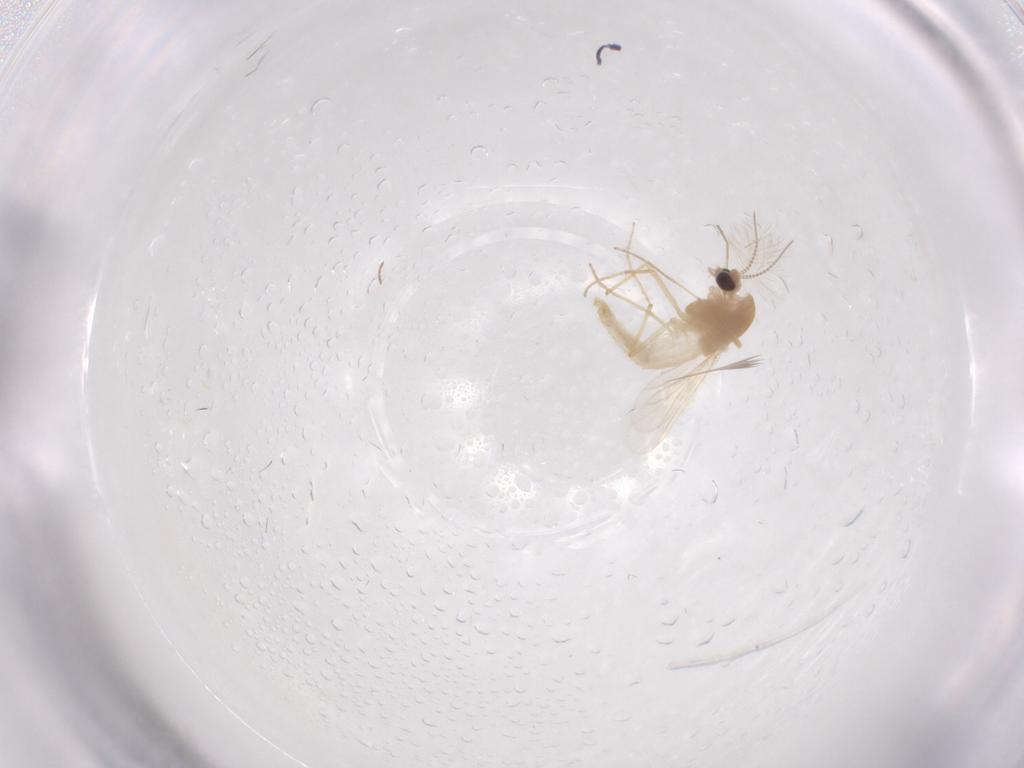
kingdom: Animalia
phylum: Arthropoda
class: Insecta
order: Diptera
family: Chironomidae
